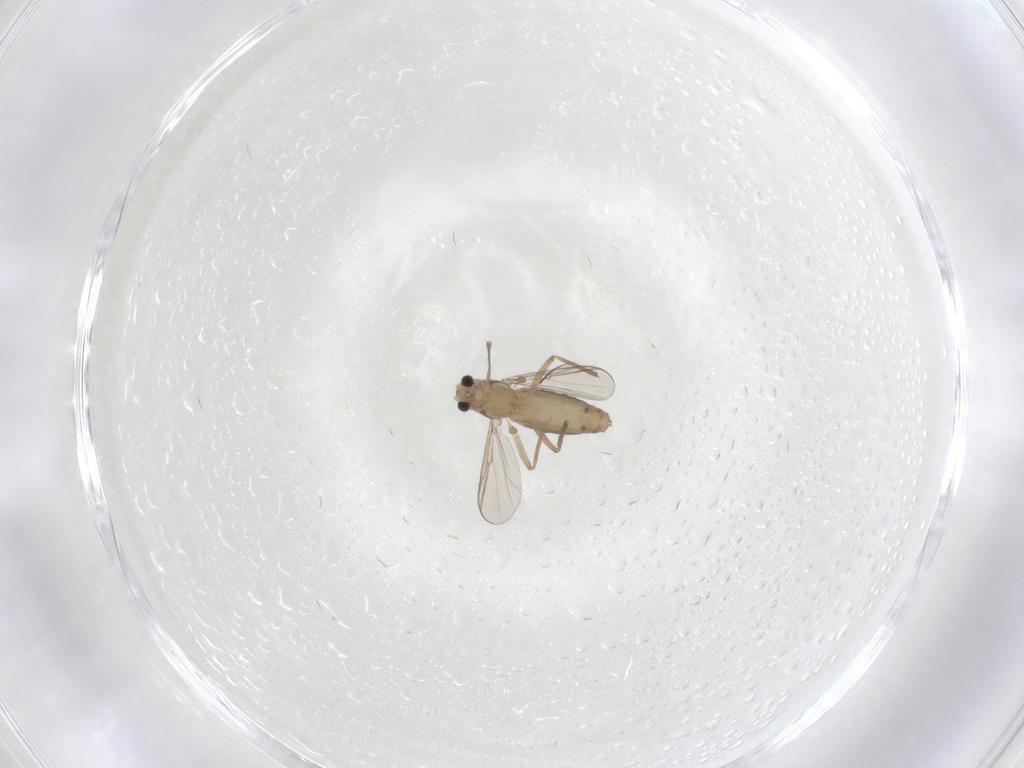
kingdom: Animalia
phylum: Arthropoda
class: Insecta
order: Diptera
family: Chironomidae
